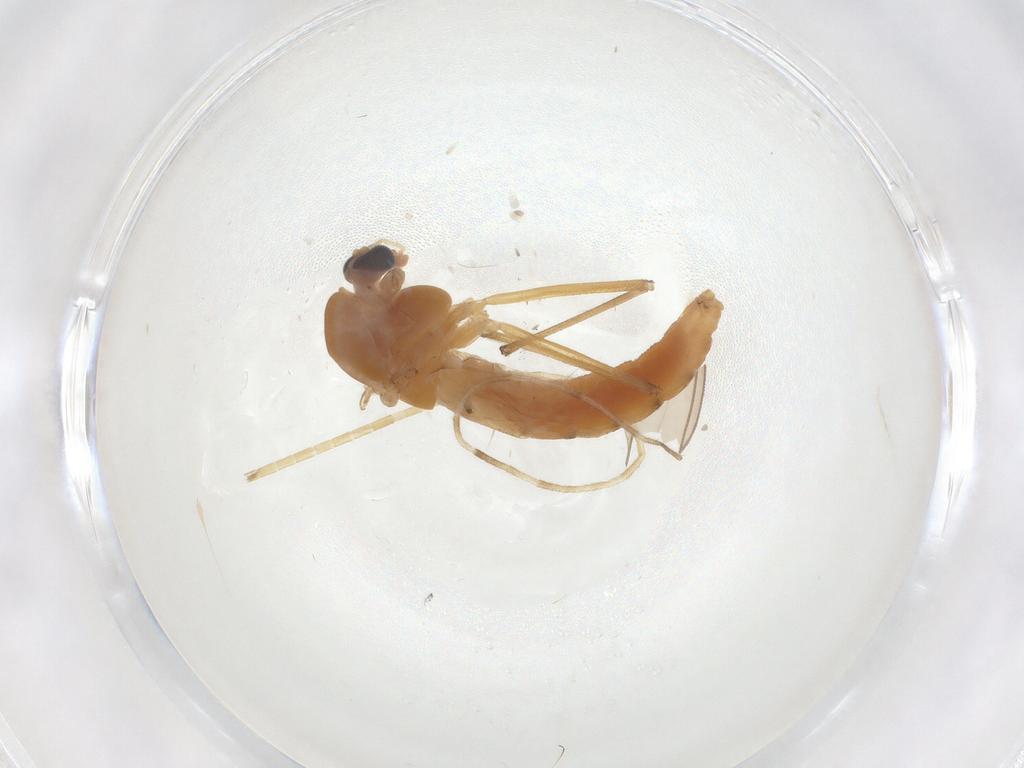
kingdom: Animalia
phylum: Arthropoda
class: Insecta
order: Diptera
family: Chironomidae
